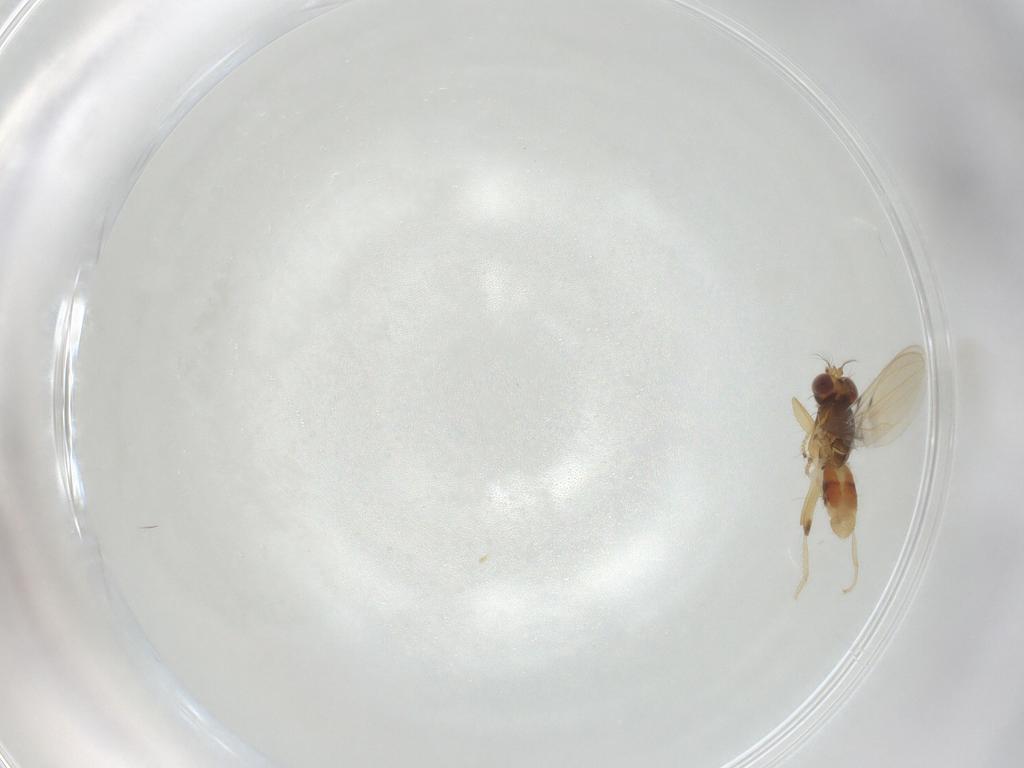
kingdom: Animalia
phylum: Arthropoda
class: Insecta
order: Diptera
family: Periscelididae
